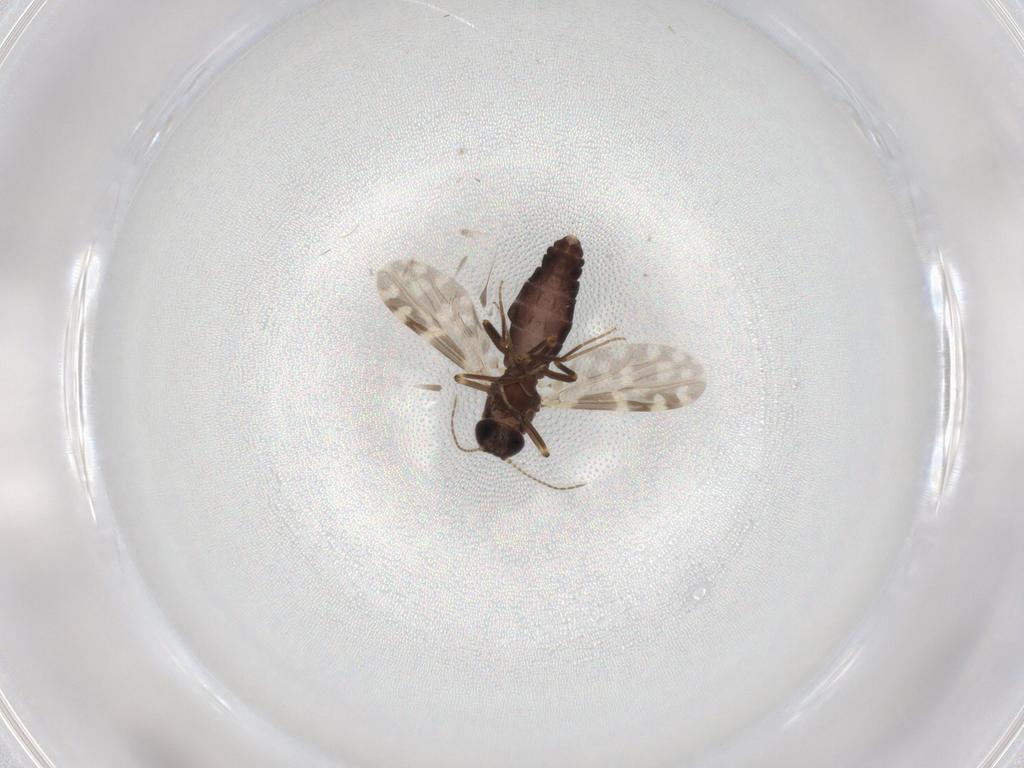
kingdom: Animalia
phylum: Arthropoda
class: Insecta
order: Diptera
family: Ceratopogonidae
